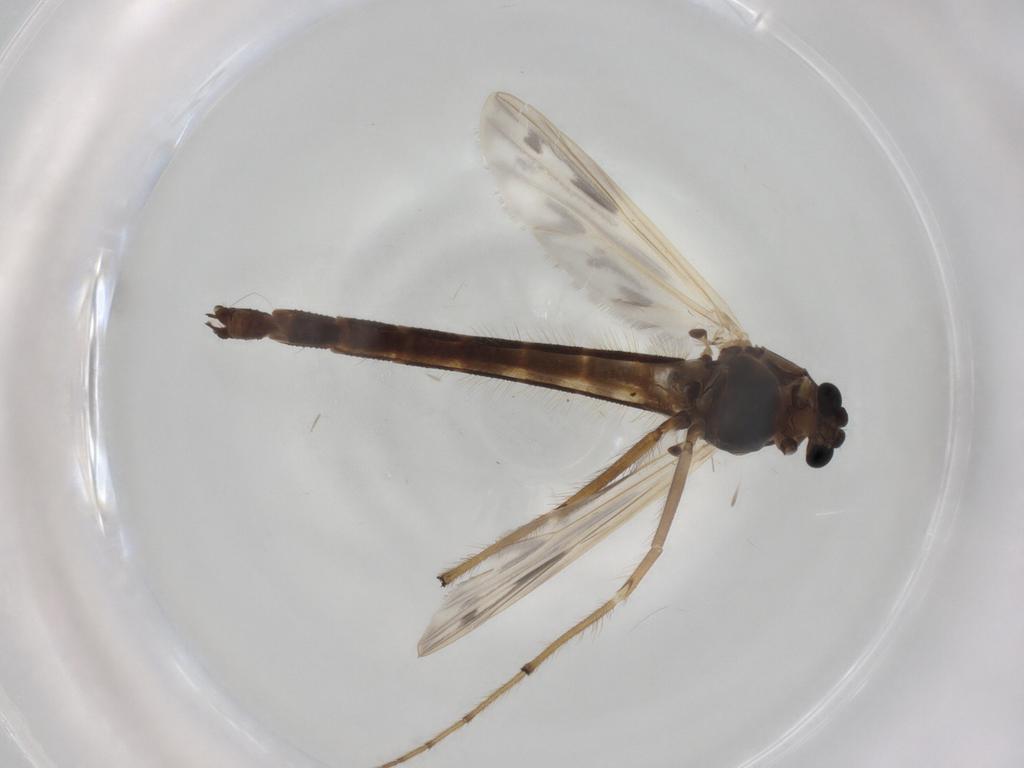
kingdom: Animalia
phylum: Arthropoda
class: Insecta
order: Diptera
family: Chironomidae
